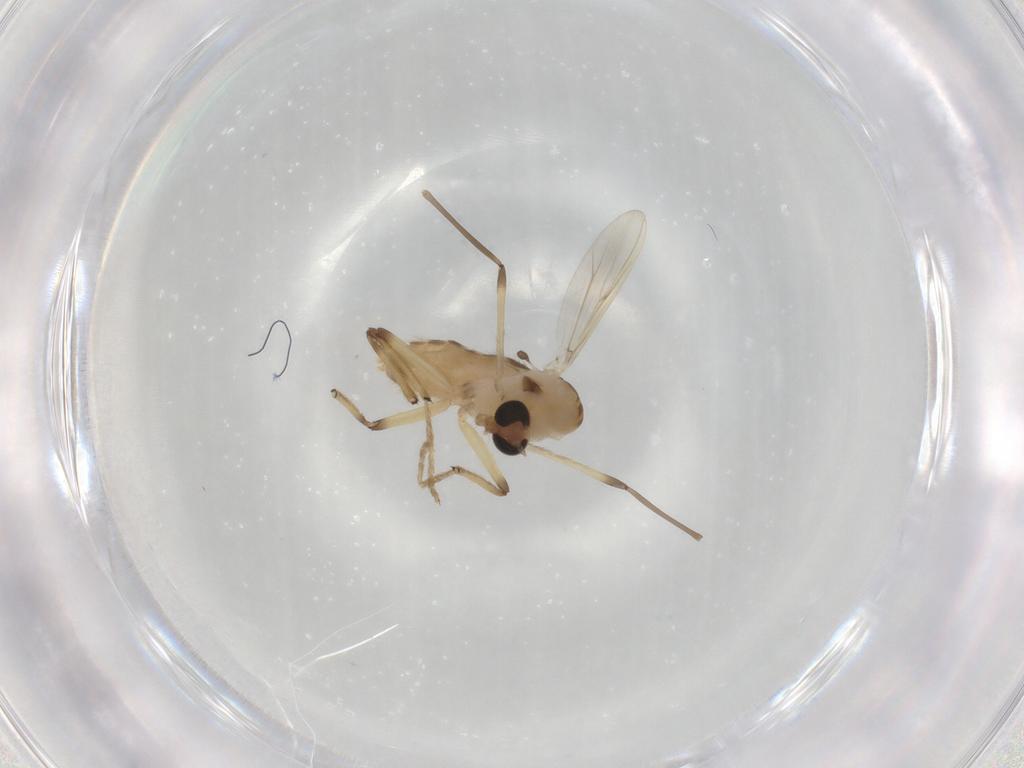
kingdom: Animalia
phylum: Arthropoda
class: Insecta
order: Diptera
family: Chironomidae
